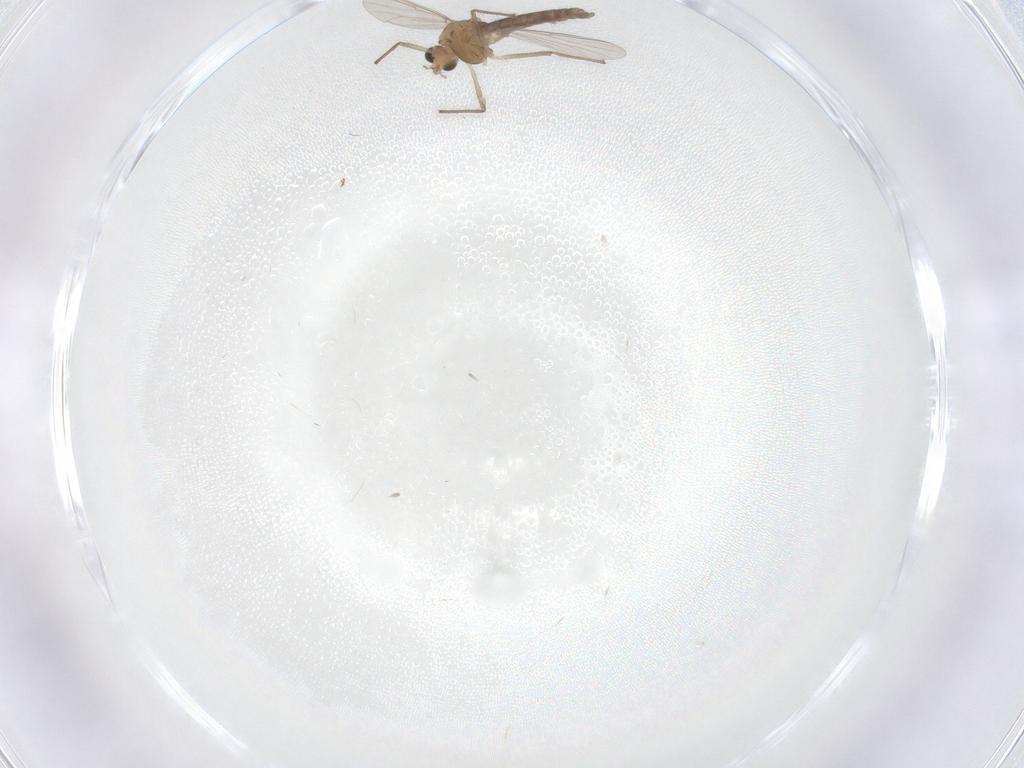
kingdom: Animalia
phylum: Arthropoda
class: Insecta
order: Diptera
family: Chironomidae
